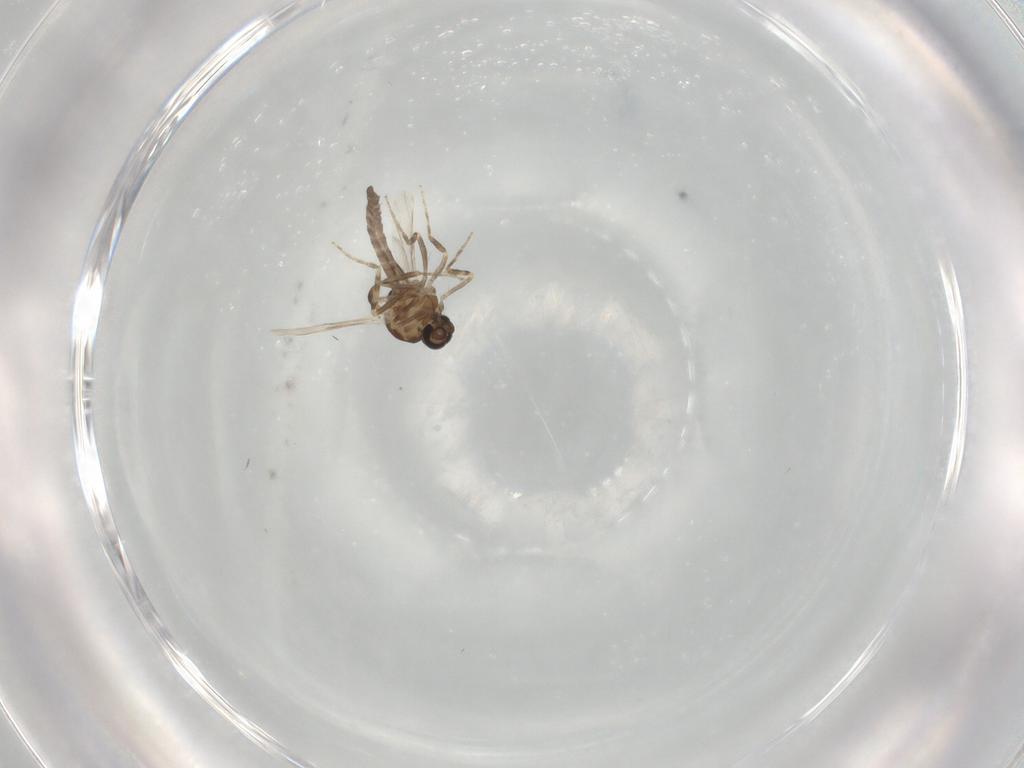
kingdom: Animalia
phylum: Arthropoda
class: Insecta
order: Diptera
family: Ceratopogonidae
